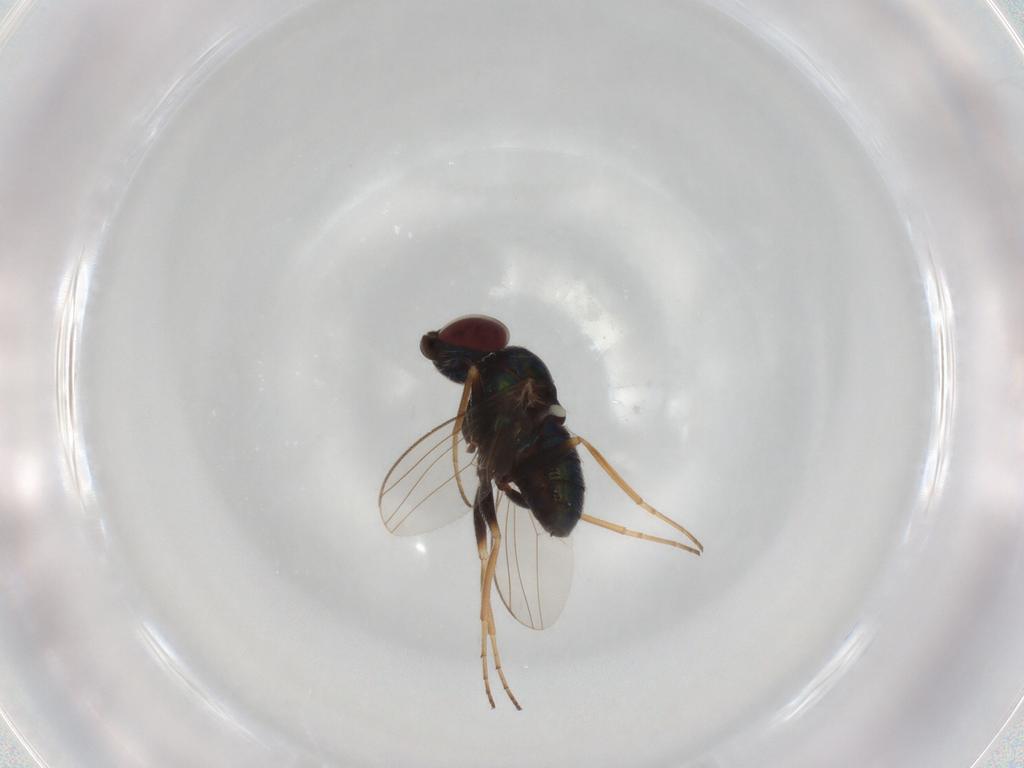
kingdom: Animalia
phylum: Arthropoda
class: Insecta
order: Diptera
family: Dolichopodidae
